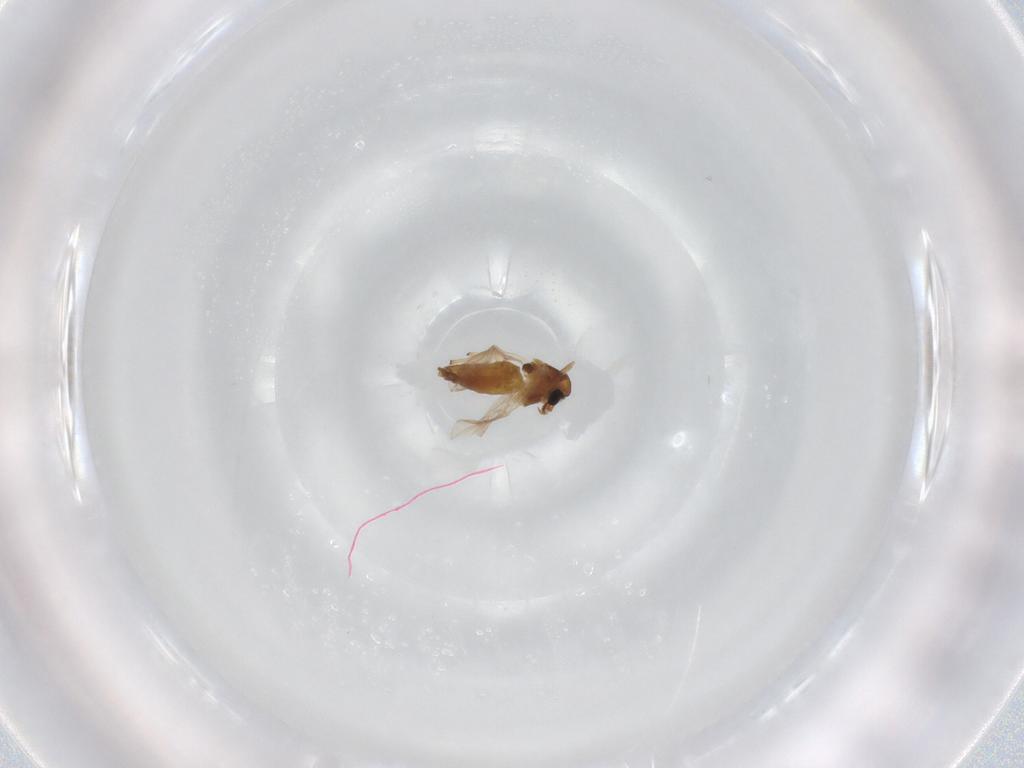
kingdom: Animalia
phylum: Arthropoda
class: Insecta
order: Diptera
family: Chironomidae
